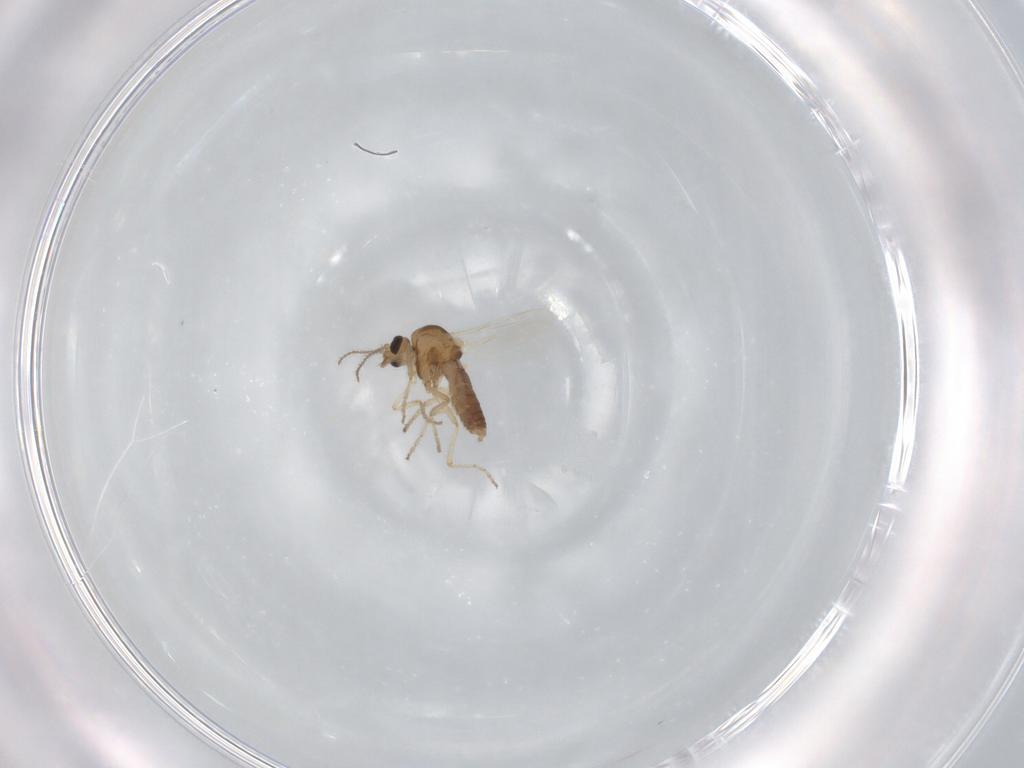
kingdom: Animalia
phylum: Arthropoda
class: Insecta
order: Diptera
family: Ceratopogonidae
